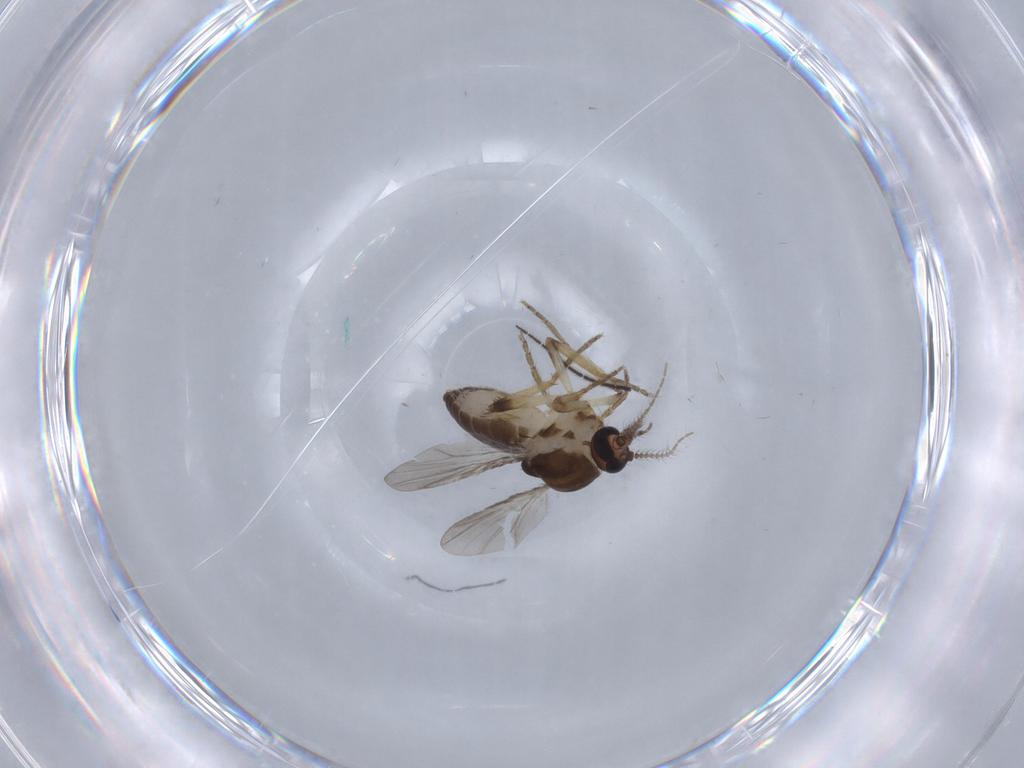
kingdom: Animalia
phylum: Arthropoda
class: Insecta
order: Diptera
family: Ceratopogonidae
